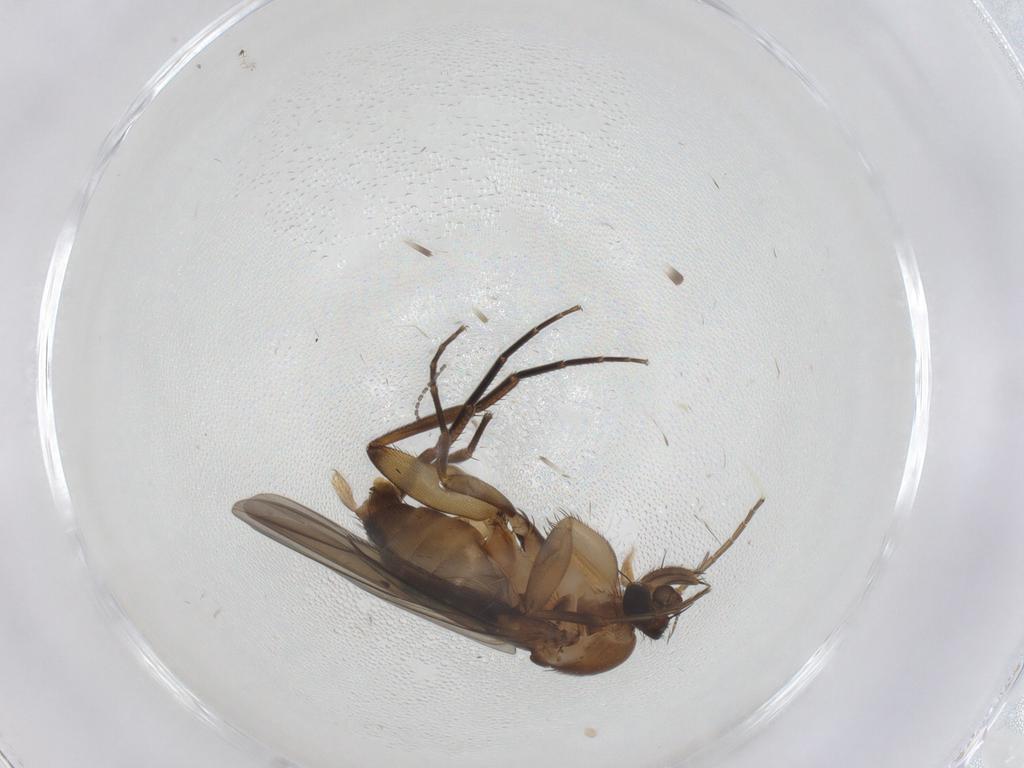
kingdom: Animalia
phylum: Arthropoda
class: Insecta
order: Diptera
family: Phoridae
